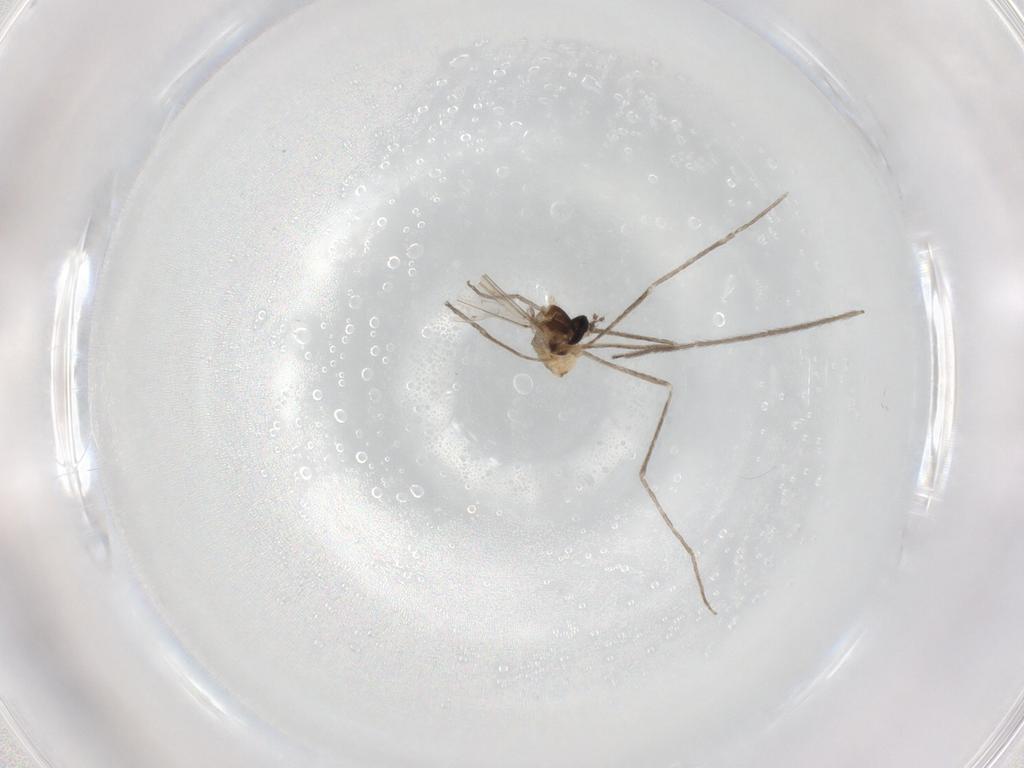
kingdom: Animalia
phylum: Arthropoda
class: Insecta
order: Diptera
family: Cecidomyiidae
